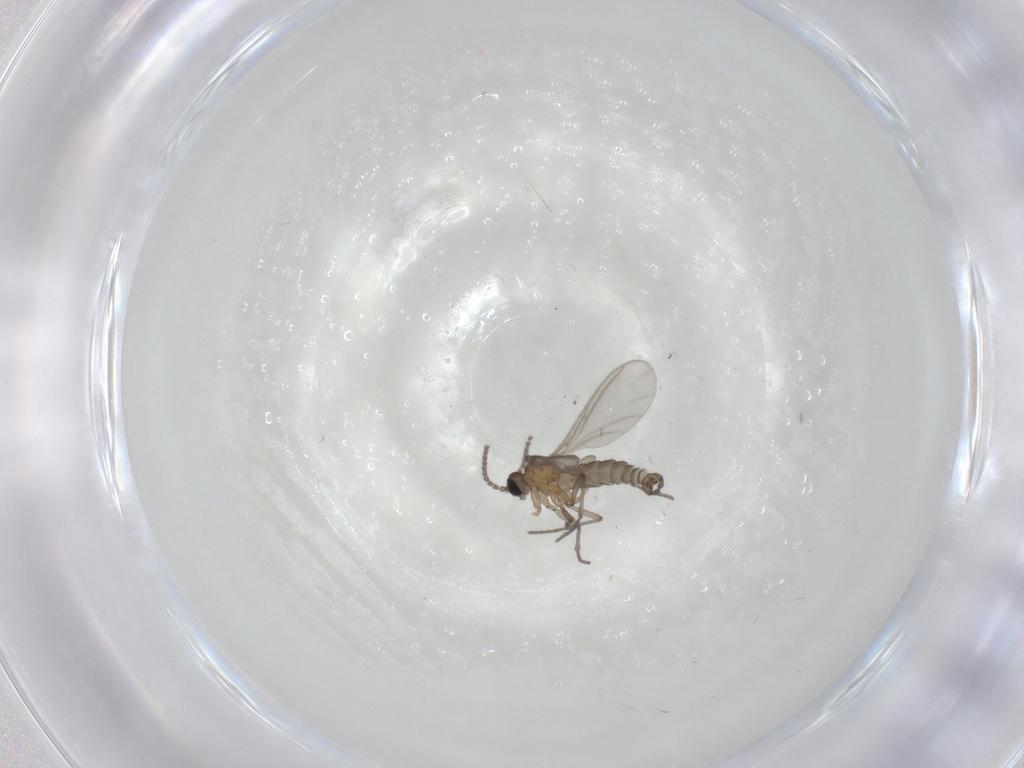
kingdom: Animalia
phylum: Arthropoda
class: Insecta
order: Diptera
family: Sciaridae
